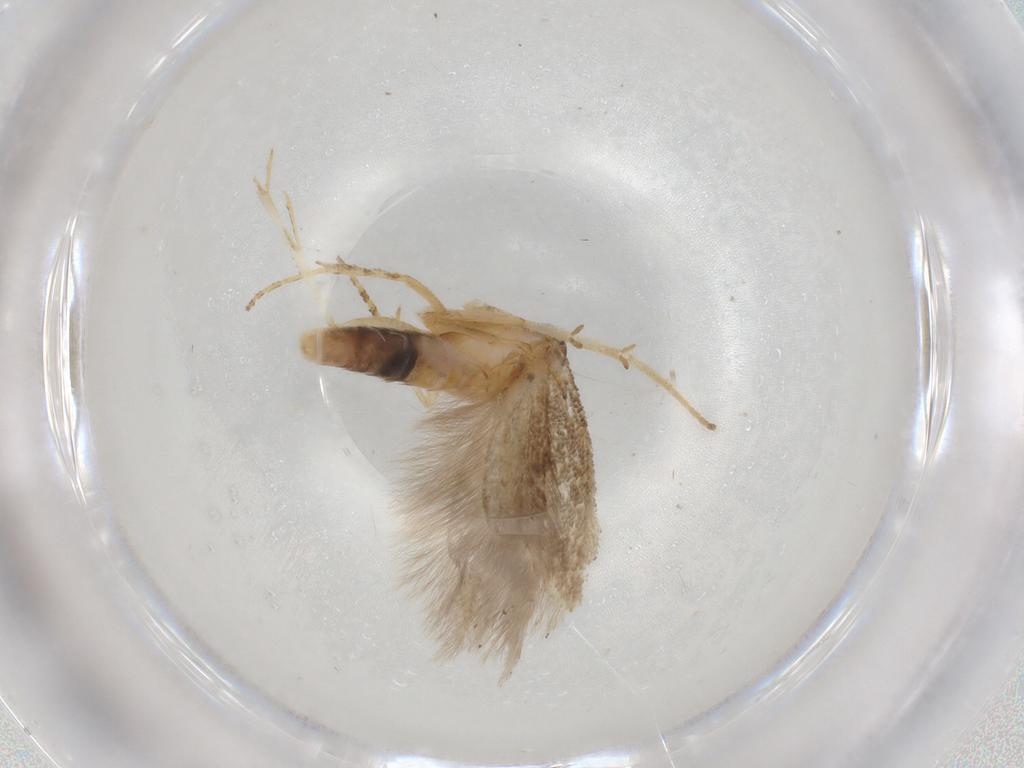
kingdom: Animalia
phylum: Arthropoda
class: Insecta
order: Lepidoptera
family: Gelechiidae
